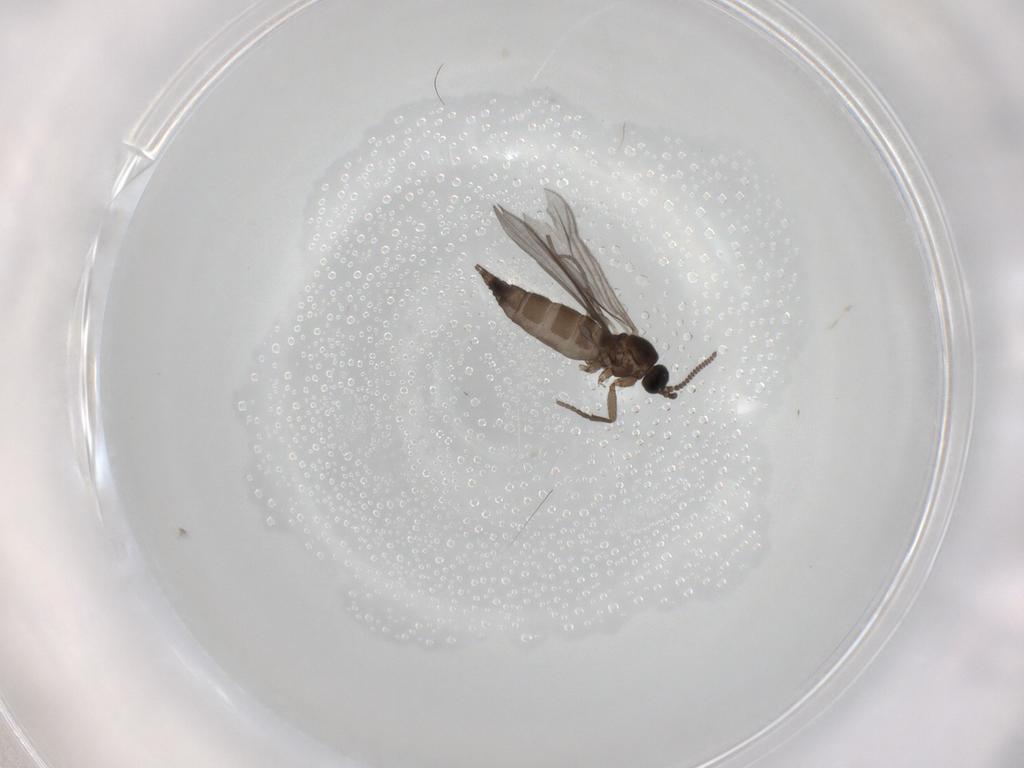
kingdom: Animalia
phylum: Arthropoda
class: Insecta
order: Diptera
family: Sciaridae
